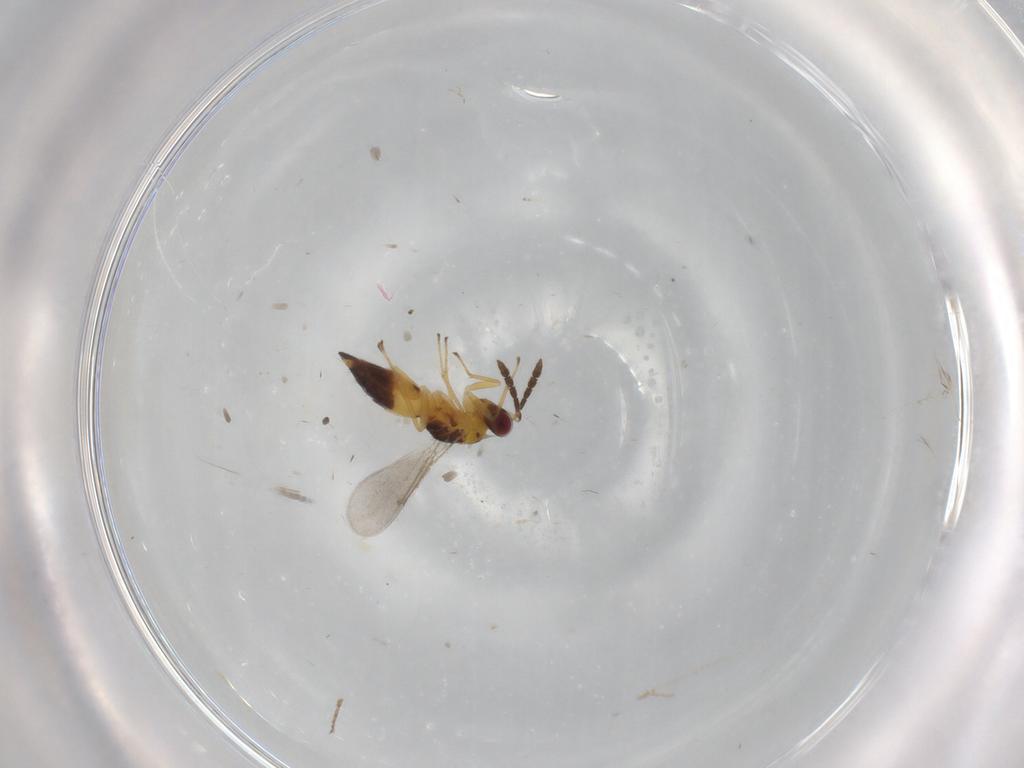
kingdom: Animalia
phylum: Arthropoda
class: Insecta
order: Hymenoptera
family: Eulophidae
